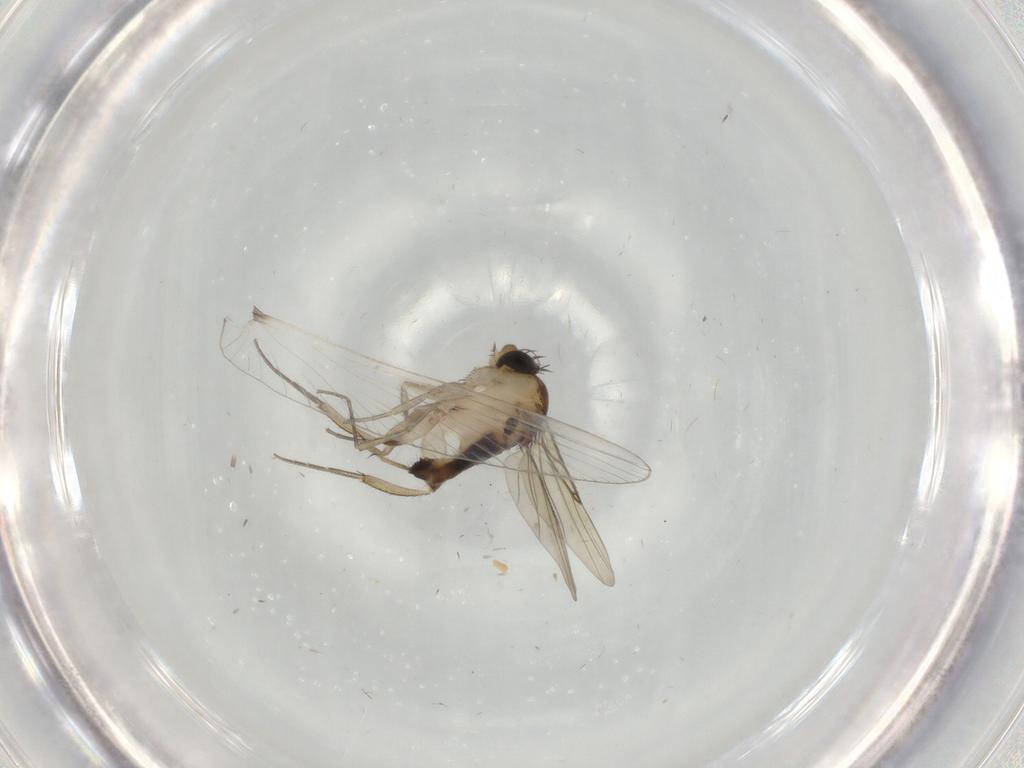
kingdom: Animalia
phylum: Arthropoda
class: Insecta
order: Diptera
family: Phoridae
